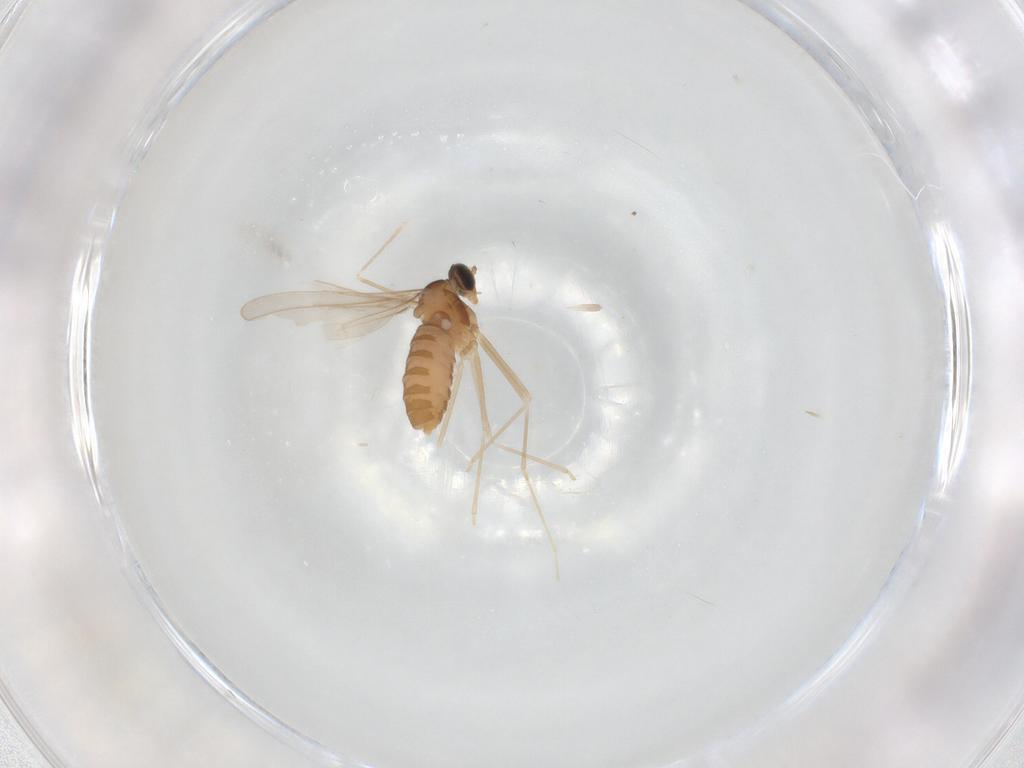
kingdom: Animalia
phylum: Arthropoda
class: Insecta
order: Diptera
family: Cecidomyiidae
